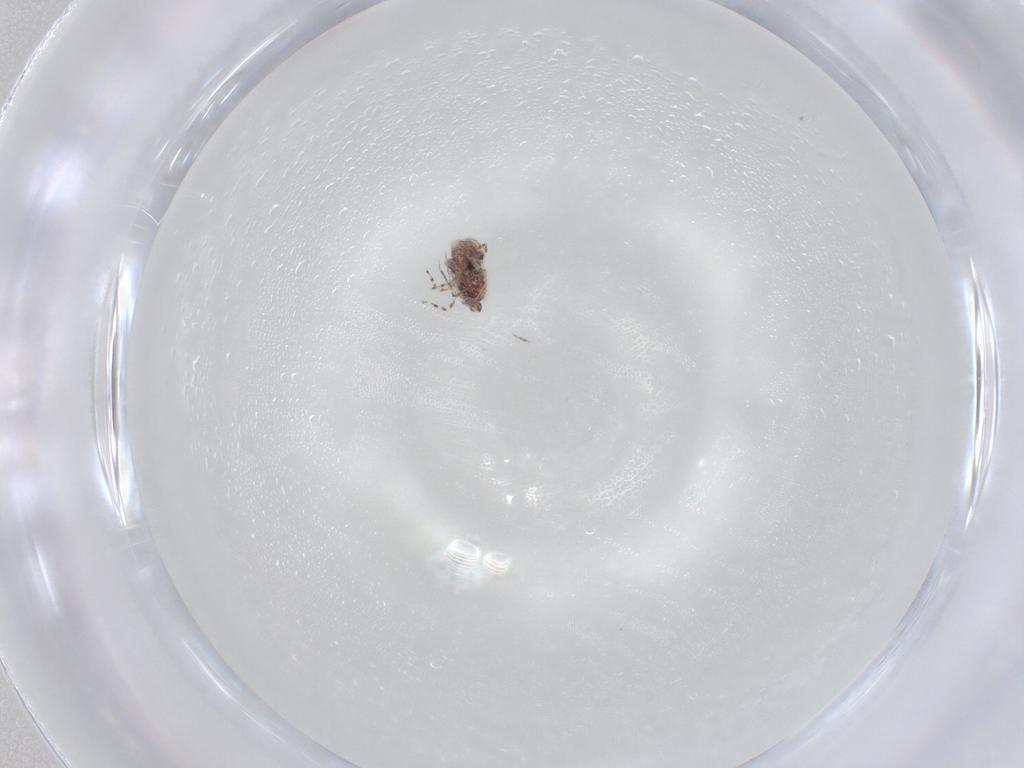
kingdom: Animalia
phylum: Arthropoda
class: Collembola
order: Symphypleona
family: Bourletiellidae
